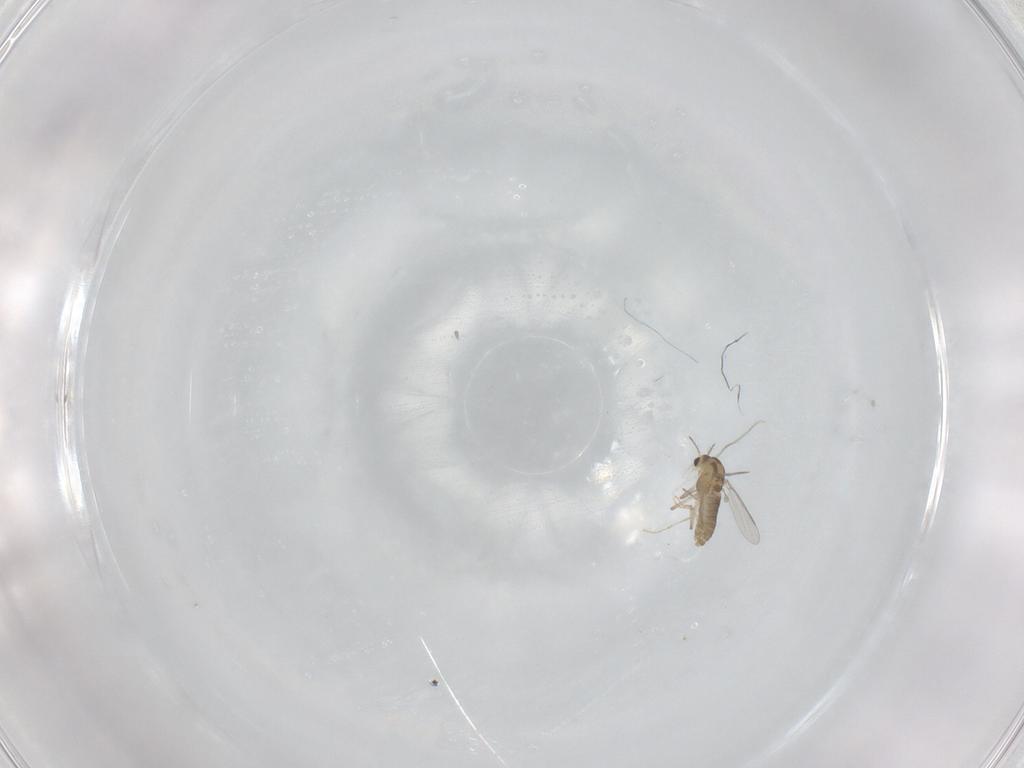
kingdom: Animalia
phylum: Arthropoda
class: Insecta
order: Diptera
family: Chironomidae
